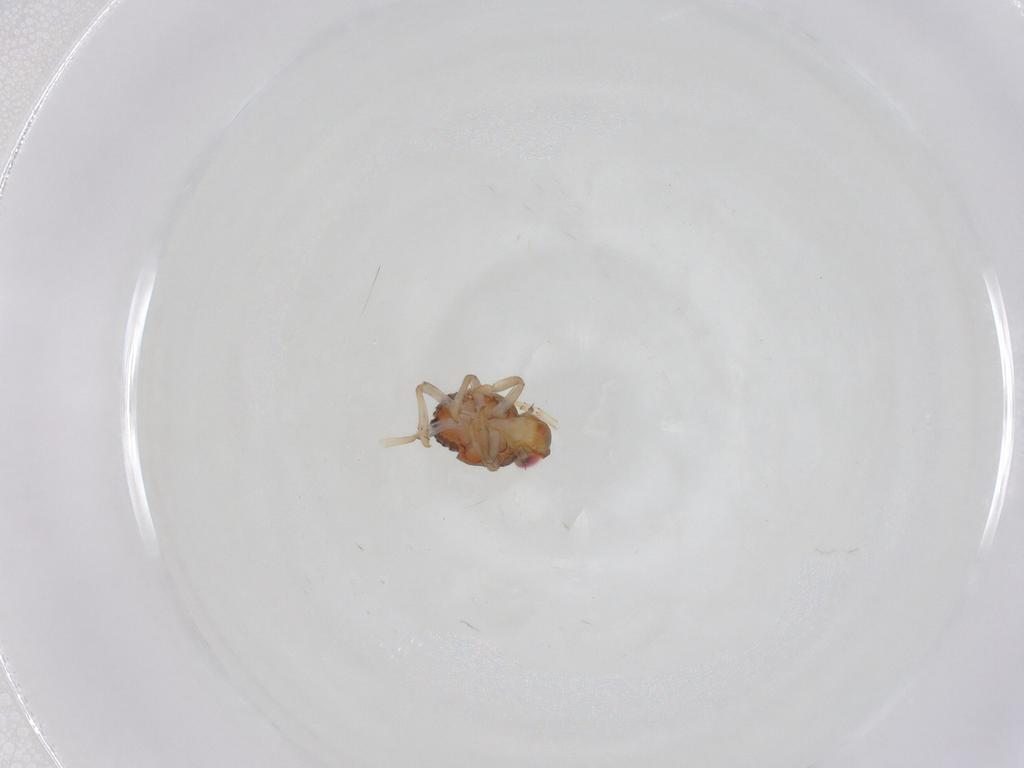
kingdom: Animalia
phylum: Arthropoda
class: Insecta
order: Hemiptera
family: Issidae
